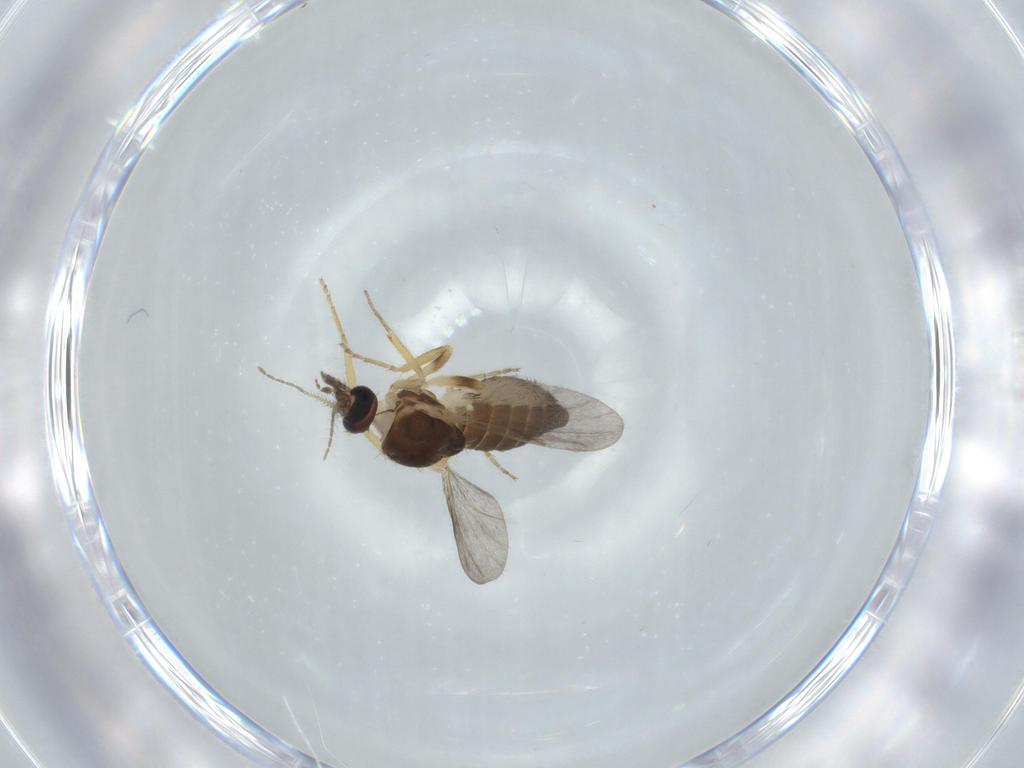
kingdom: Animalia
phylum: Arthropoda
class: Insecta
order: Diptera
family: Ceratopogonidae
